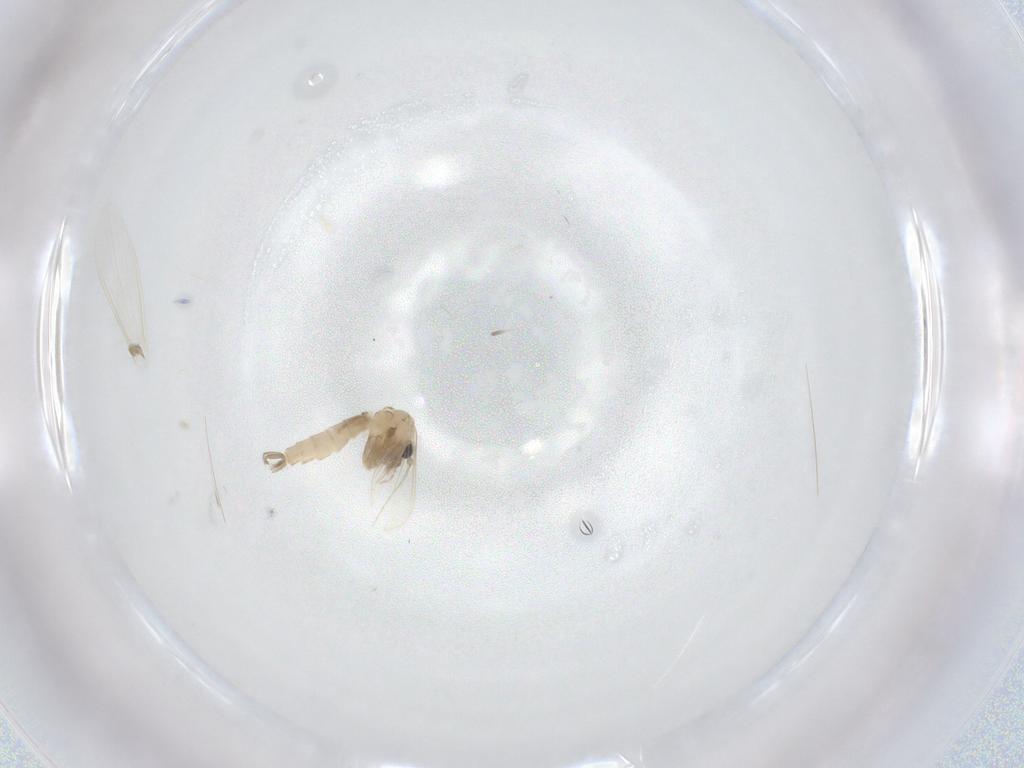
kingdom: Animalia
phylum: Arthropoda
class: Insecta
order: Diptera
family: Psychodidae
